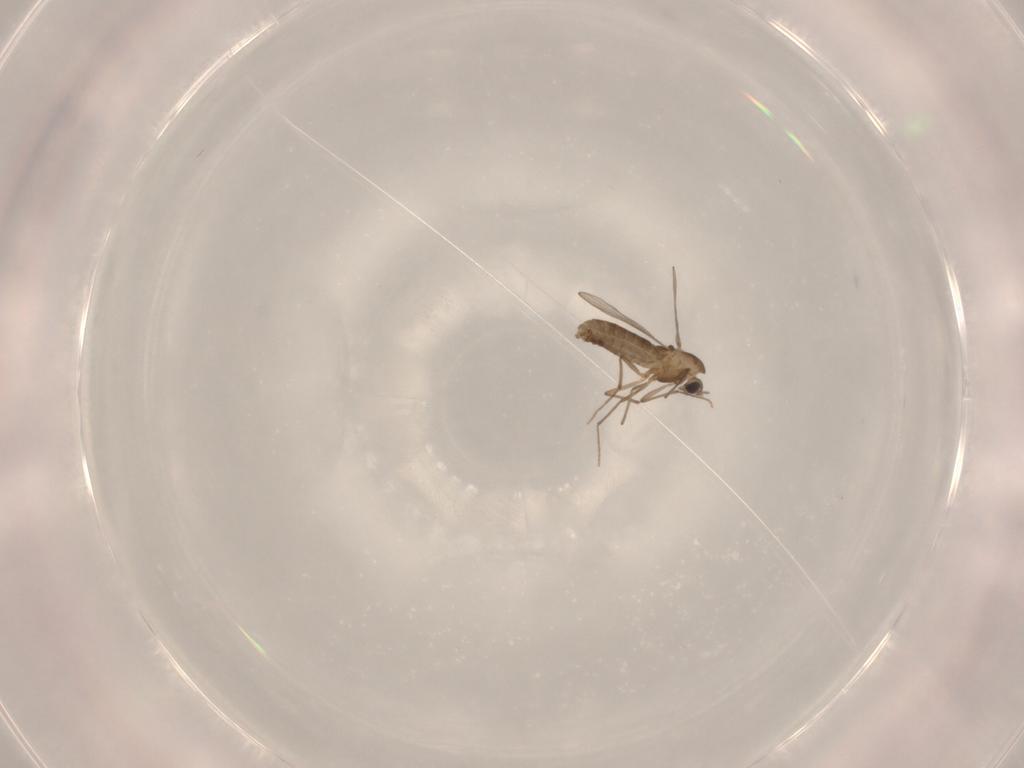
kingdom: Animalia
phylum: Arthropoda
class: Insecta
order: Diptera
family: Chironomidae
